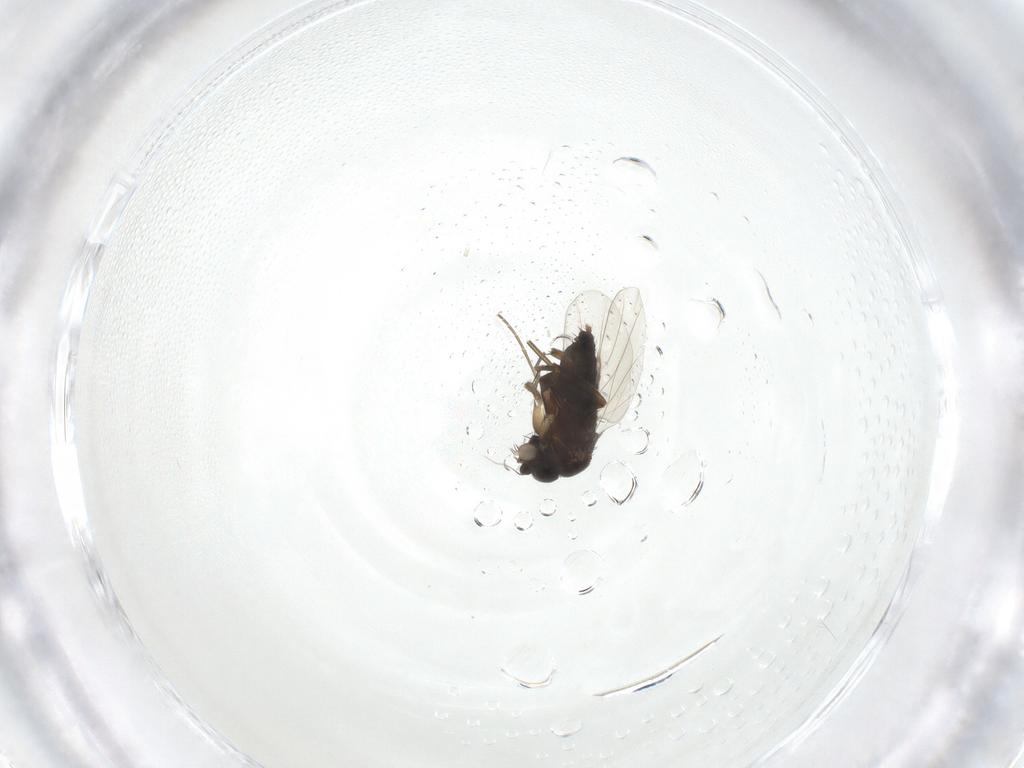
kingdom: Animalia
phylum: Arthropoda
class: Insecta
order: Diptera
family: Phoridae
